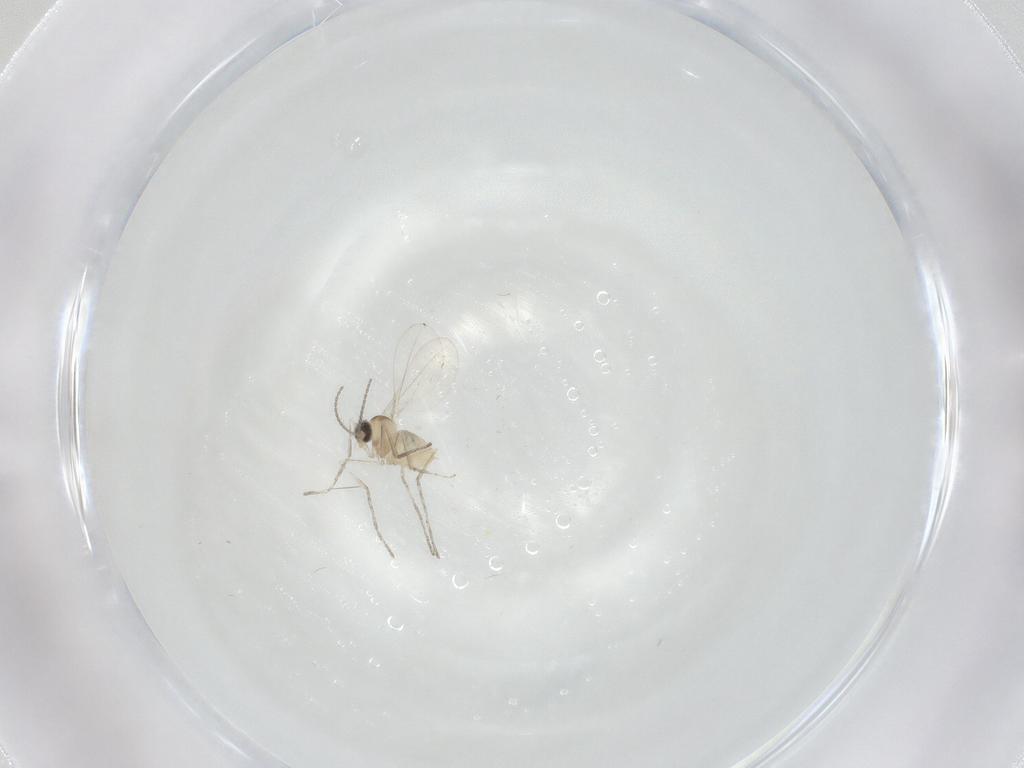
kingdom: Animalia
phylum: Arthropoda
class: Insecta
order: Diptera
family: Cecidomyiidae
